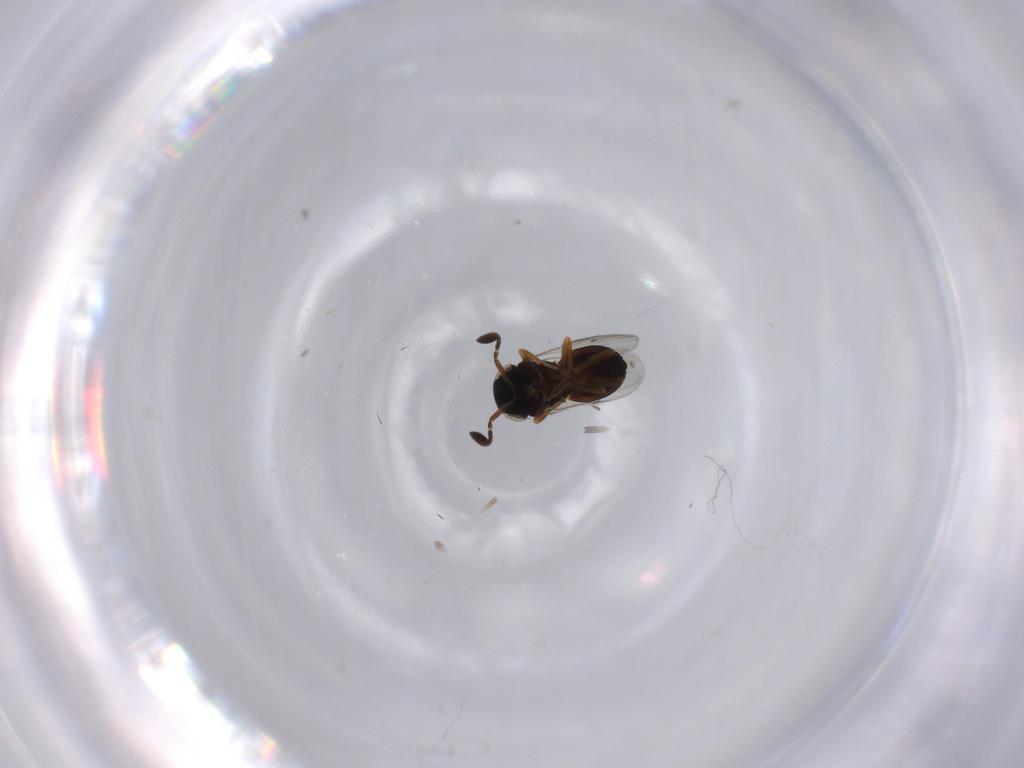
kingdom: Animalia
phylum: Arthropoda
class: Insecta
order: Hymenoptera
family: Scelionidae
